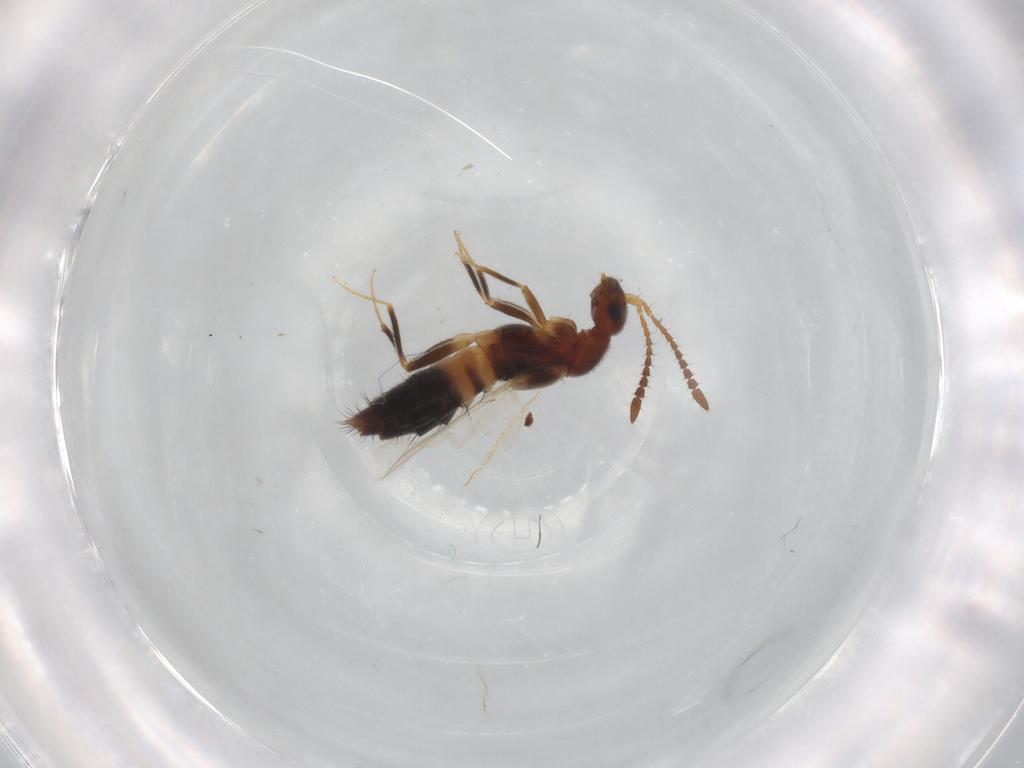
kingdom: Animalia
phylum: Arthropoda
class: Insecta
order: Coleoptera
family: Staphylinidae
